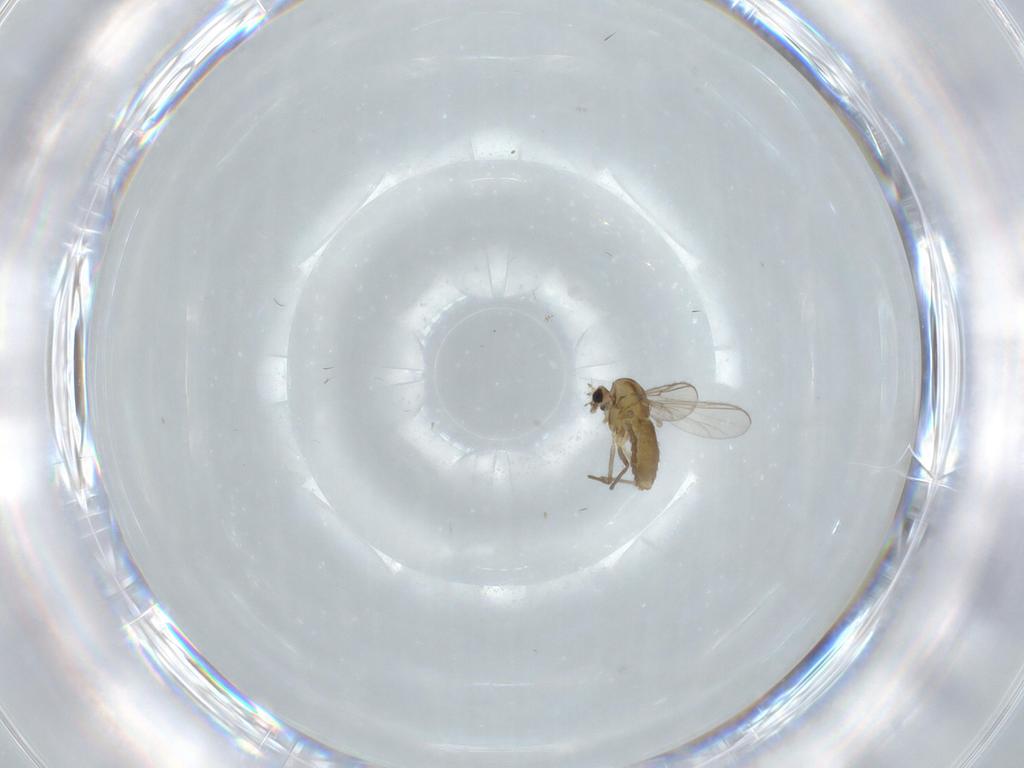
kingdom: Animalia
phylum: Arthropoda
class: Insecta
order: Diptera
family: Chironomidae
